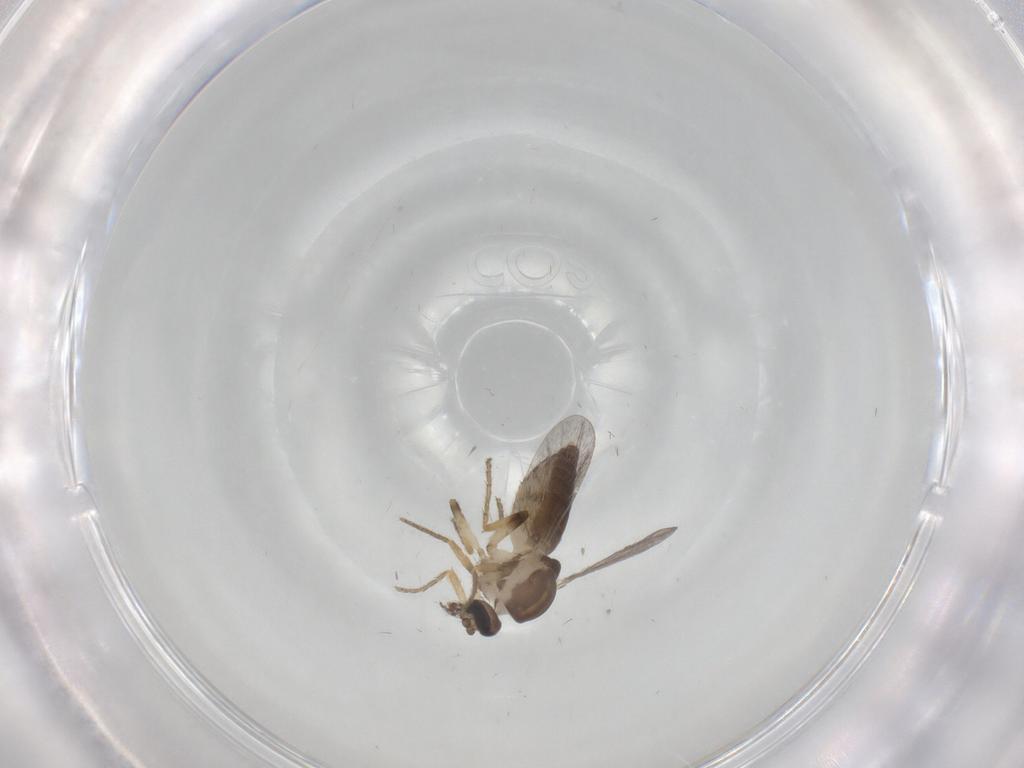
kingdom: Animalia
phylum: Arthropoda
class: Insecta
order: Diptera
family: Ceratopogonidae
